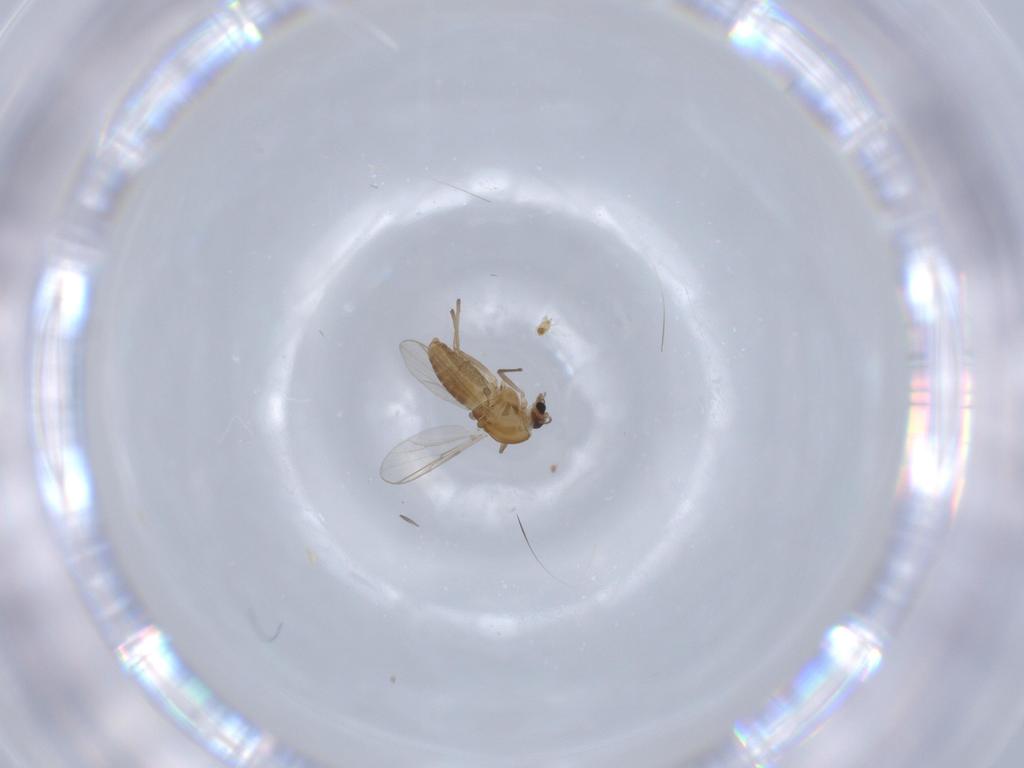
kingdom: Animalia
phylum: Arthropoda
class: Insecta
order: Diptera
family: Chironomidae
